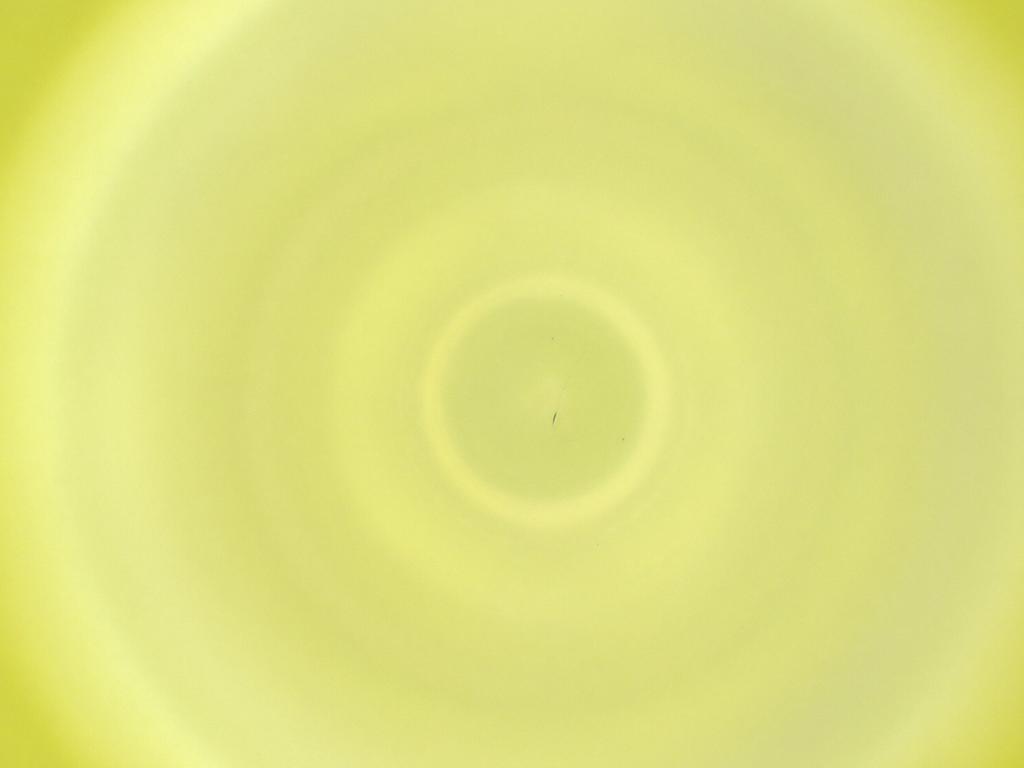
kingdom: Animalia
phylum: Arthropoda
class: Insecta
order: Diptera
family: Cecidomyiidae
